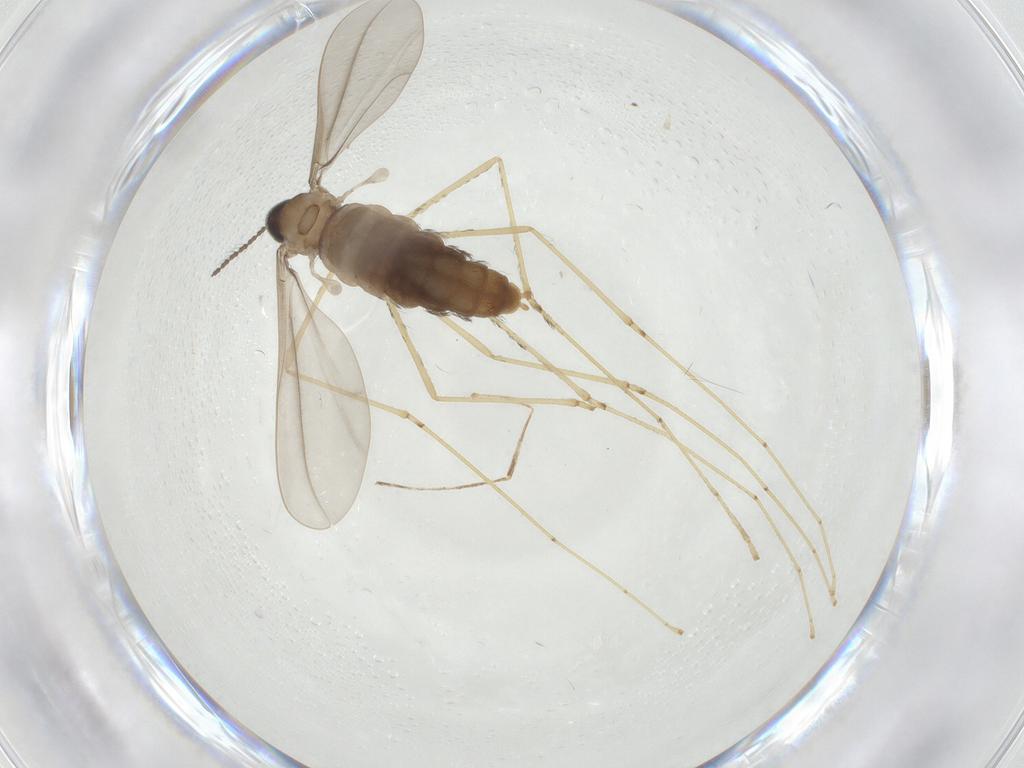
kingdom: Animalia
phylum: Arthropoda
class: Insecta
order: Diptera
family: Cecidomyiidae
